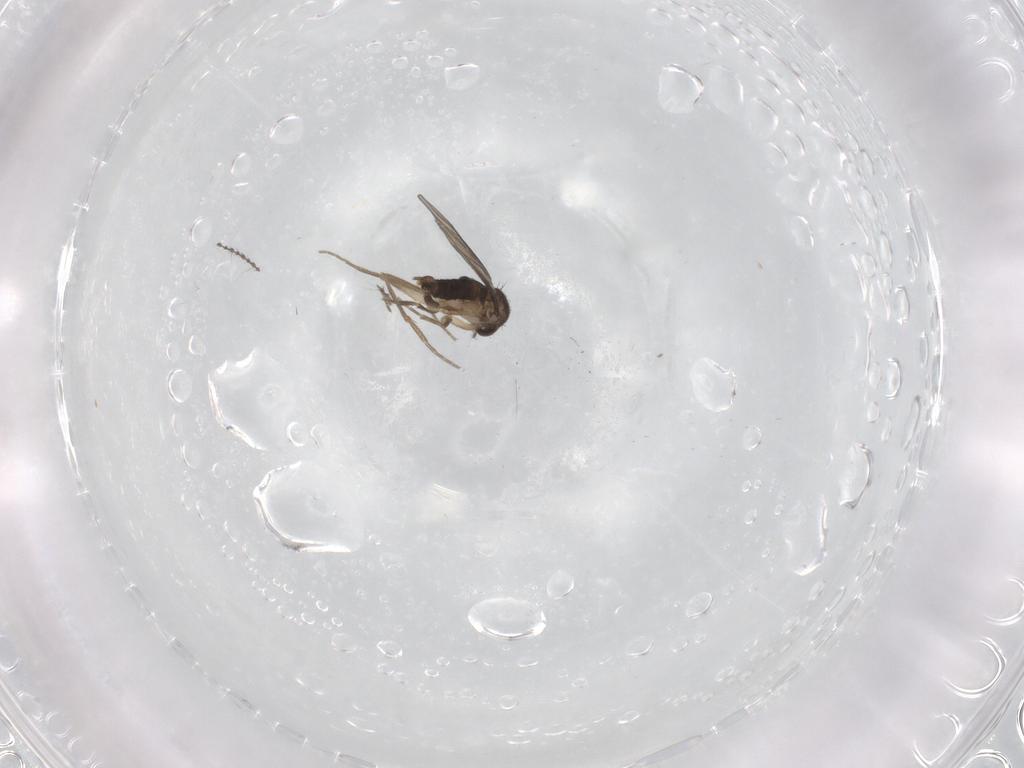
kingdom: Animalia
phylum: Arthropoda
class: Insecta
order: Diptera
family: Phoridae
